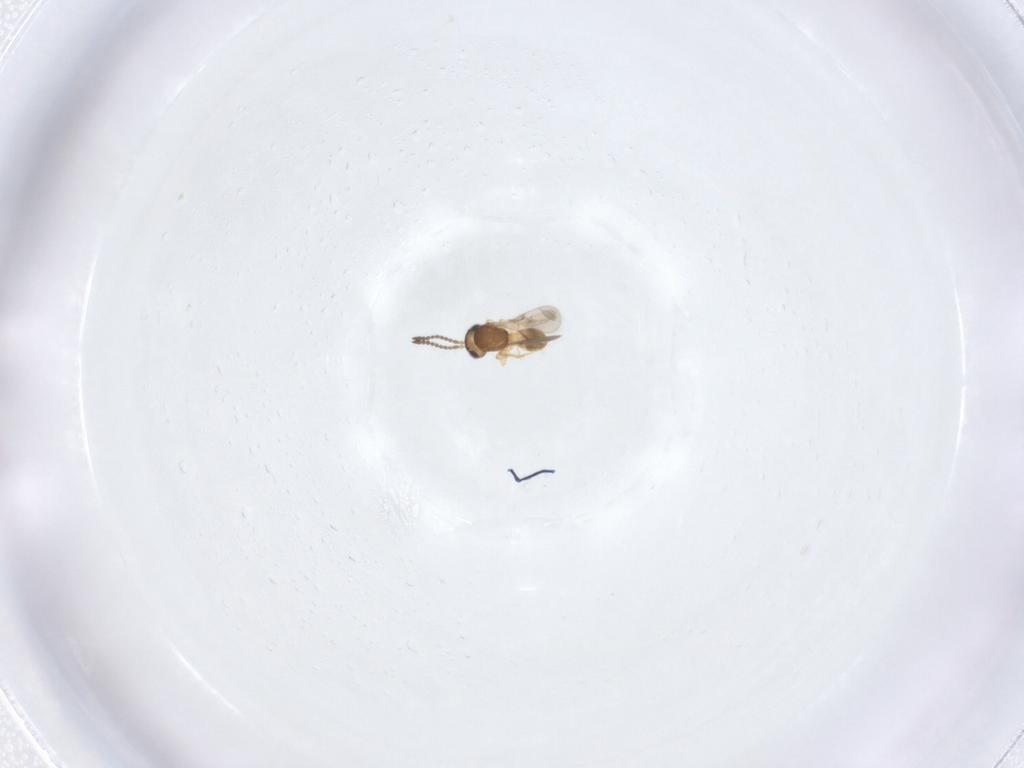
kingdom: Animalia
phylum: Arthropoda
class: Insecta
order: Hymenoptera
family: Scelionidae
